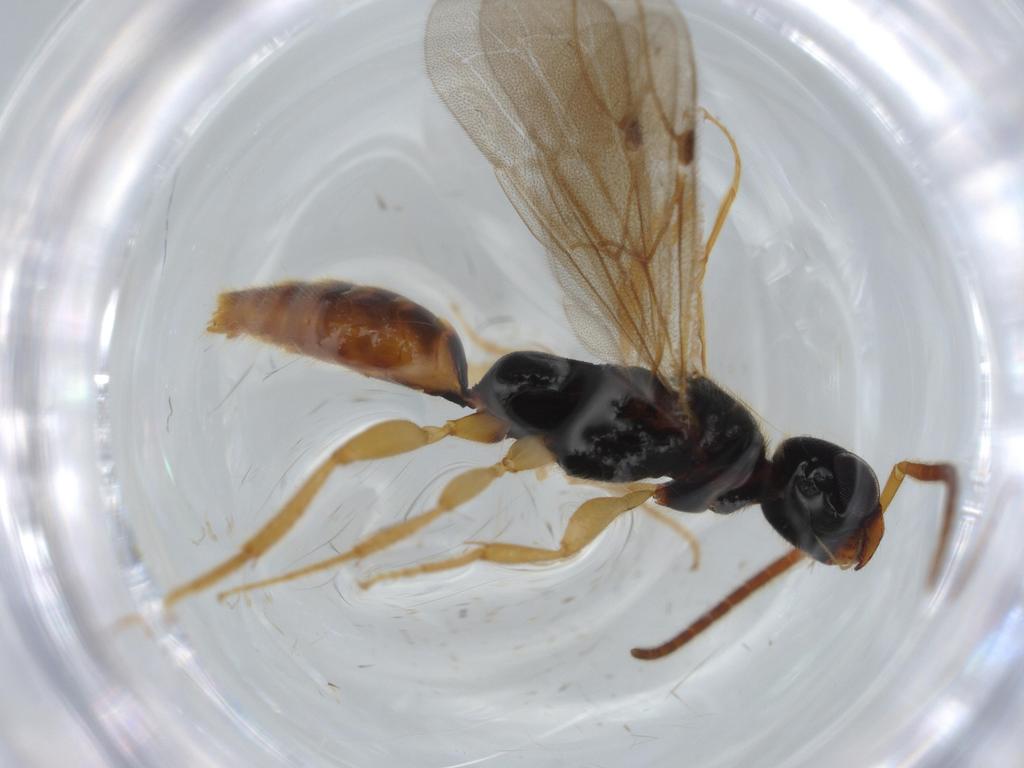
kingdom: Animalia
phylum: Arthropoda
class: Insecta
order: Hymenoptera
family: Bethylidae
